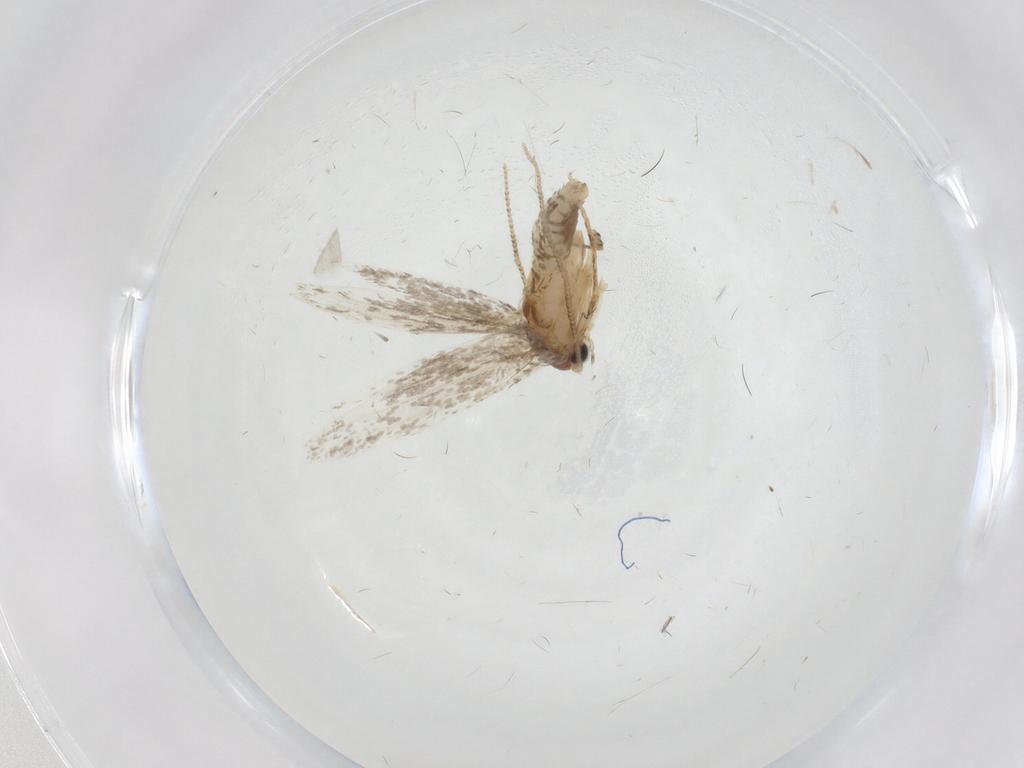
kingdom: Animalia
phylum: Arthropoda
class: Insecta
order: Lepidoptera
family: Tineidae
